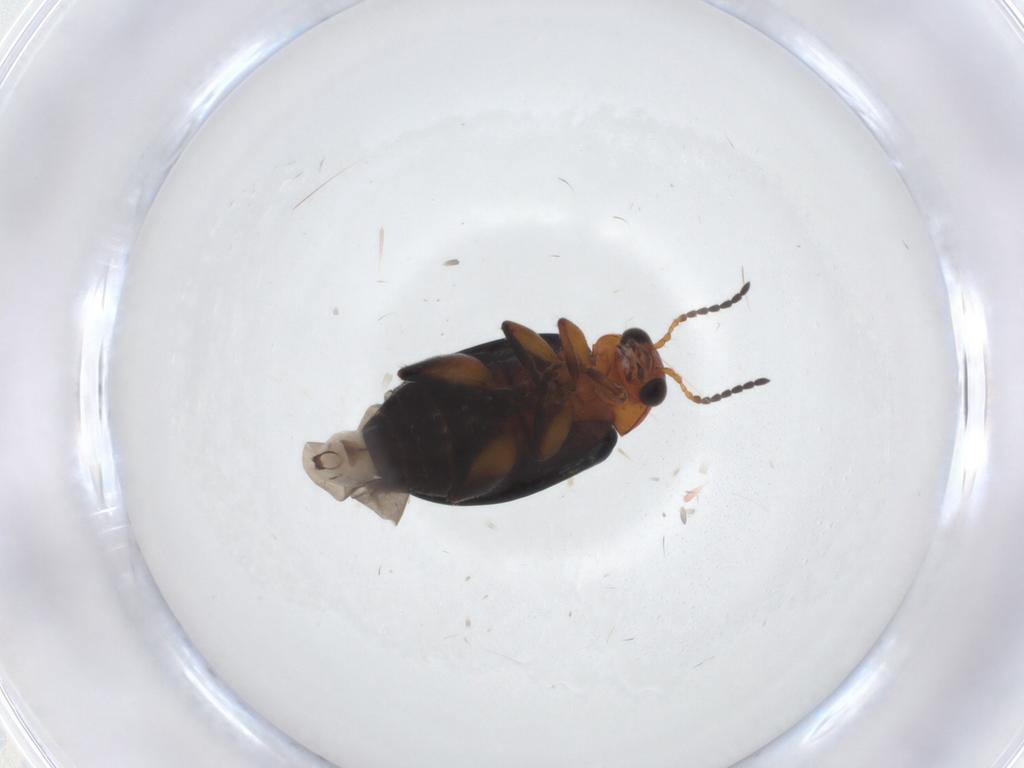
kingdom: Animalia
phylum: Arthropoda
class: Insecta
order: Coleoptera
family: Chrysomelidae
